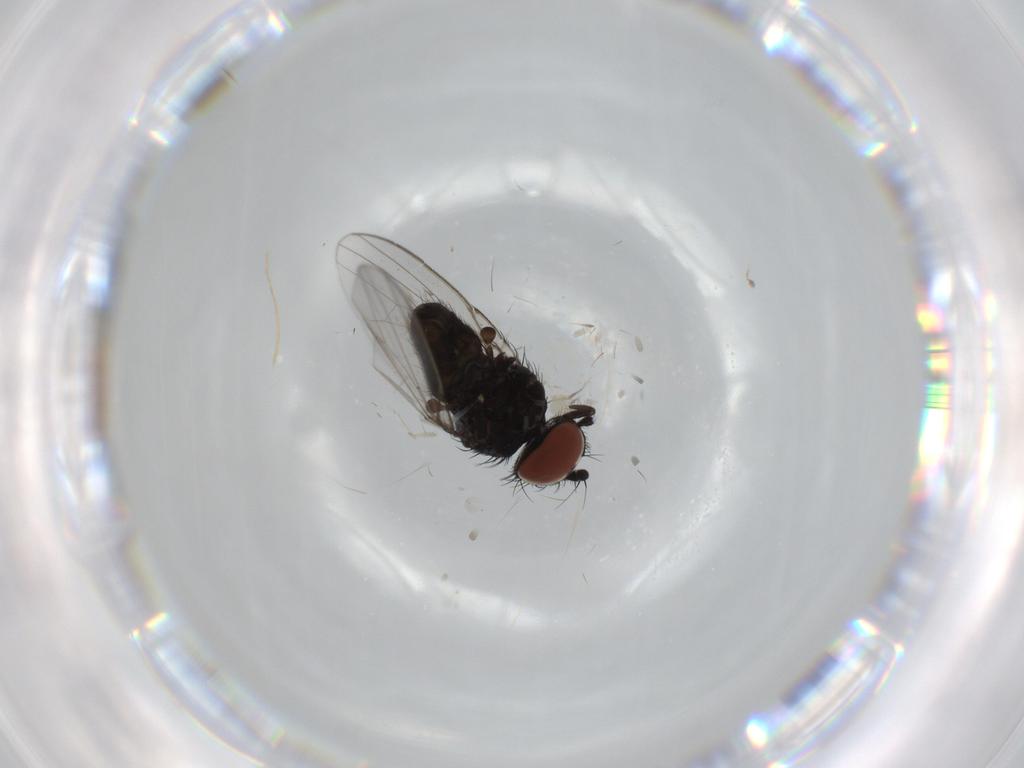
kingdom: Animalia
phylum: Arthropoda
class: Insecta
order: Diptera
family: Milichiidae
